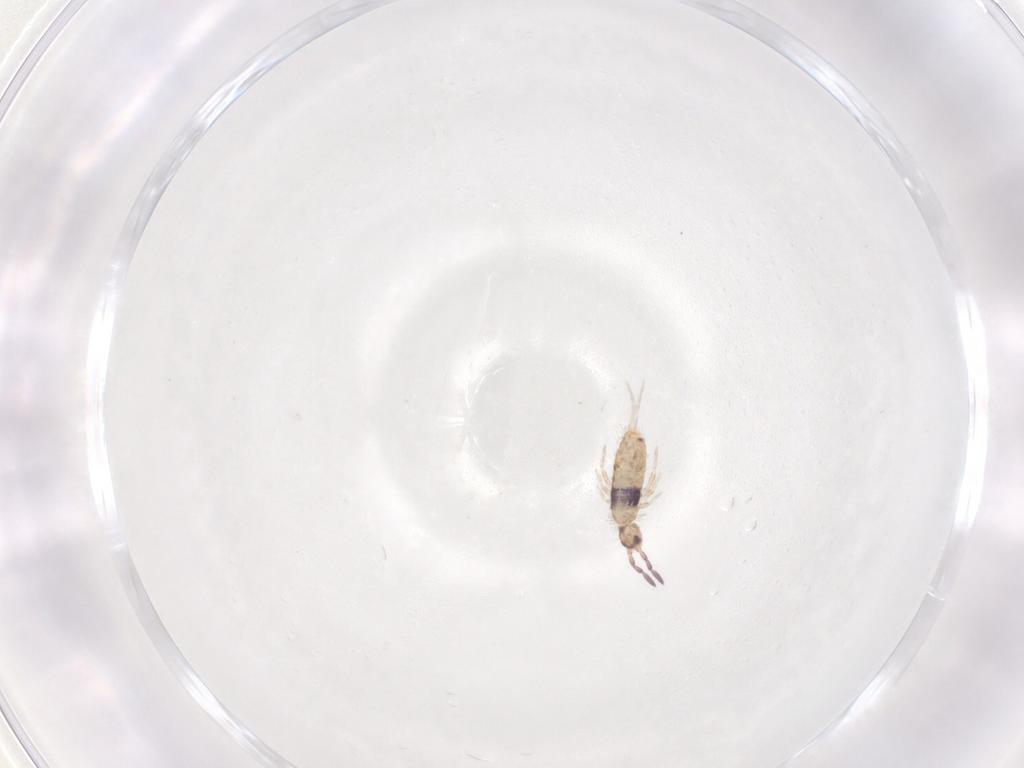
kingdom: Animalia
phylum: Arthropoda
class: Collembola
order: Entomobryomorpha
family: Entomobryidae
